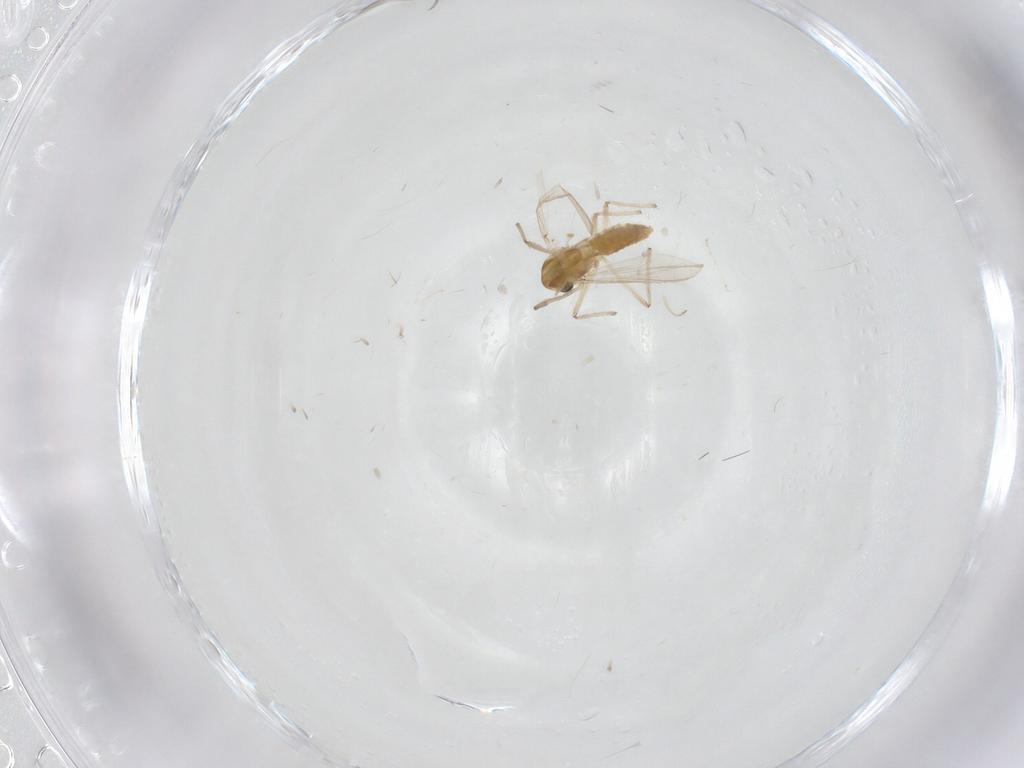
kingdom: Animalia
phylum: Arthropoda
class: Insecta
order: Diptera
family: Chironomidae
